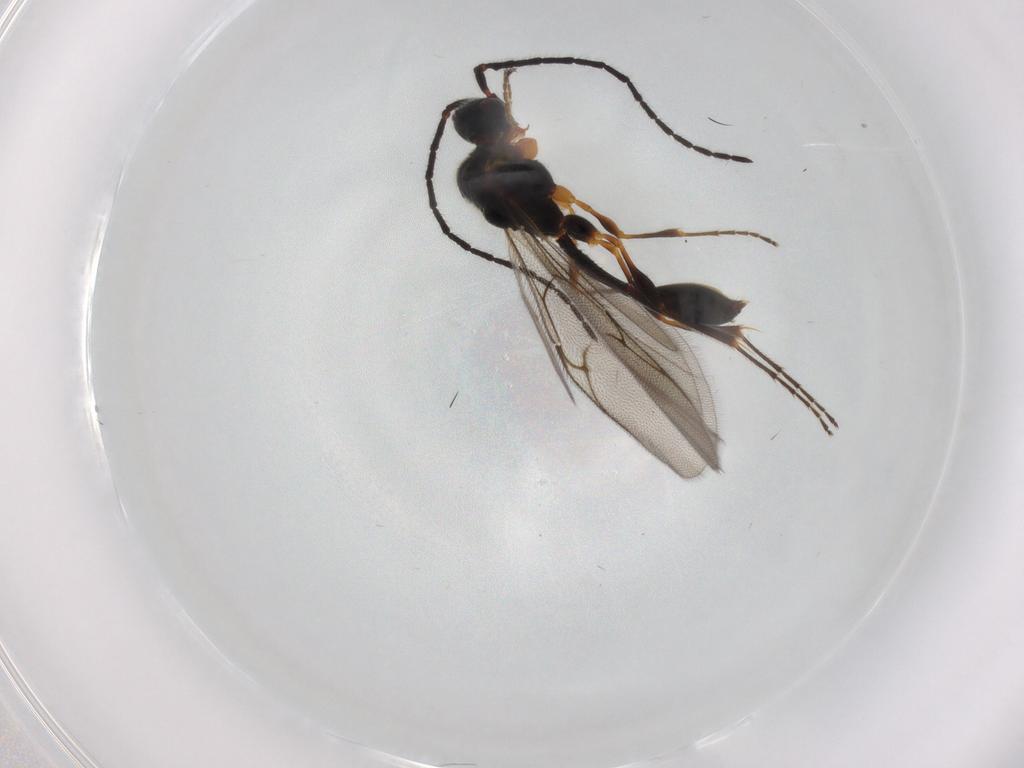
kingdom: Animalia
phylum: Arthropoda
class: Insecta
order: Hymenoptera
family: Diapriidae
